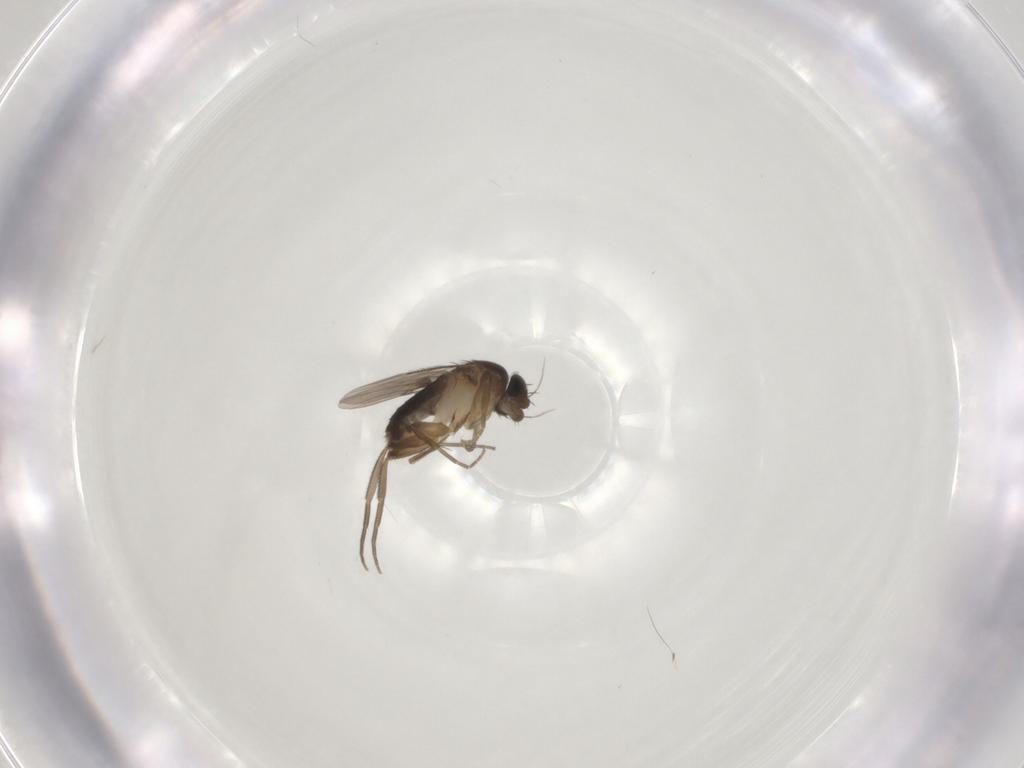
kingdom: Animalia
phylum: Arthropoda
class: Insecta
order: Diptera
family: Phoridae
